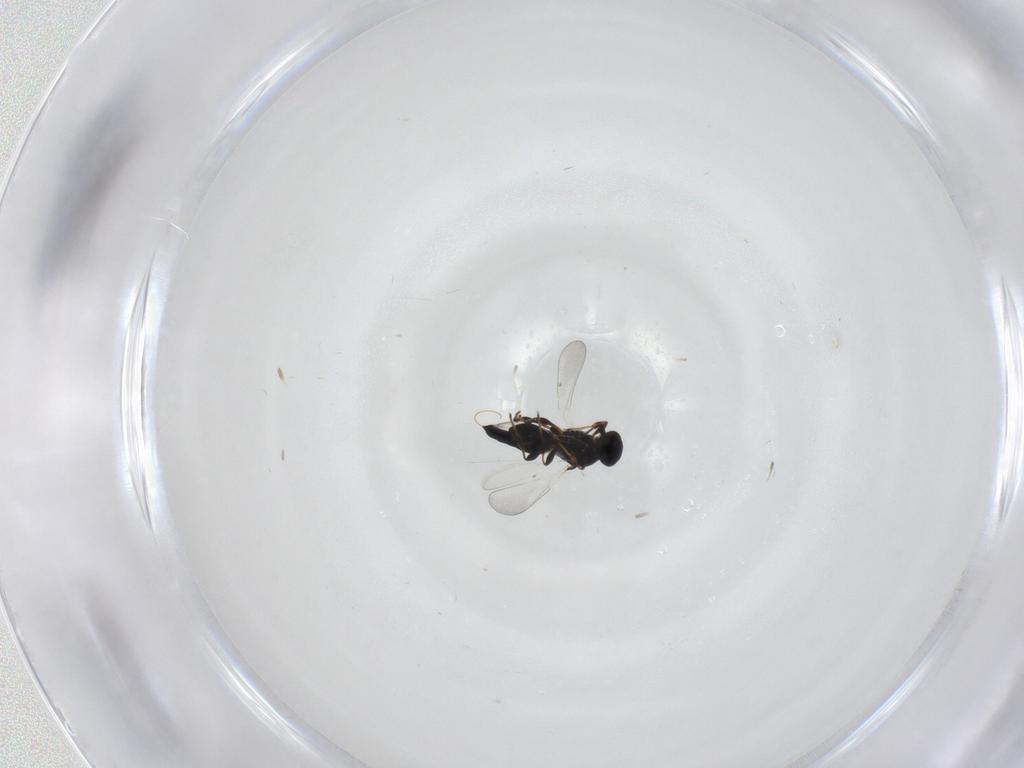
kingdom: Animalia
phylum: Arthropoda
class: Insecta
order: Hymenoptera
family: Platygastridae
